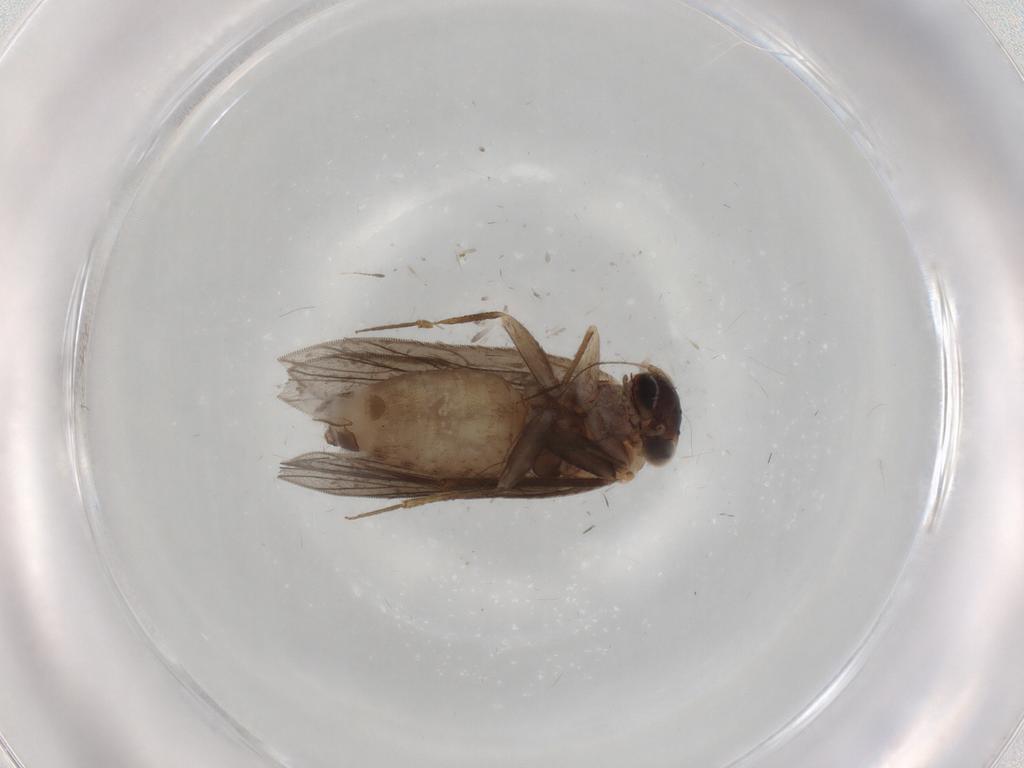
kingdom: Animalia
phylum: Arthropoda
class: Insecta
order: Psocodea
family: Lepidopsocidae
